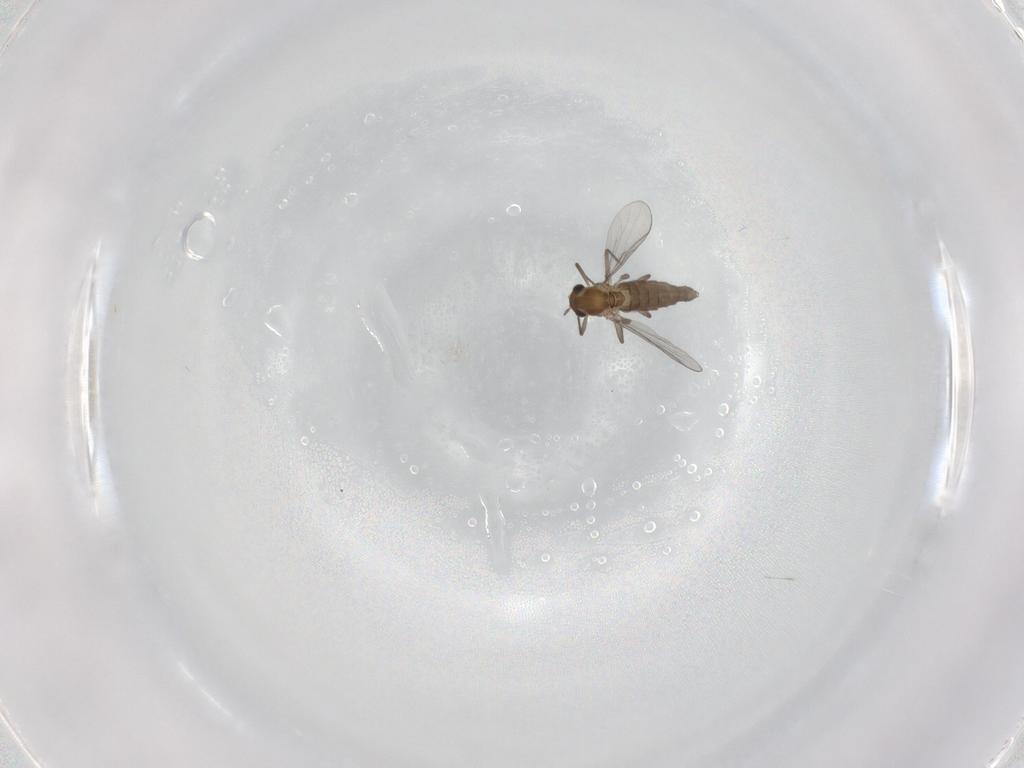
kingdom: Animalia
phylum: Arthropoda
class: Insecta
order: Diptera
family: Chironomidae
